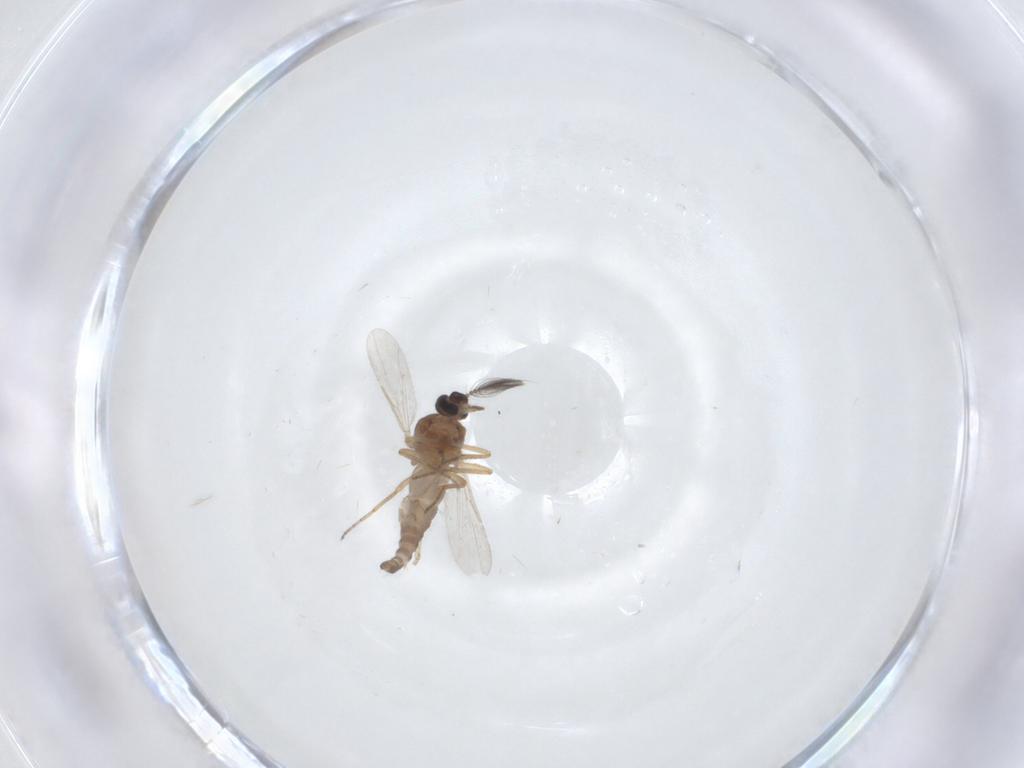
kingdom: Animalia
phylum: Arthropoda
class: Insecta
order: Diptera
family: Ceratopogonidae
